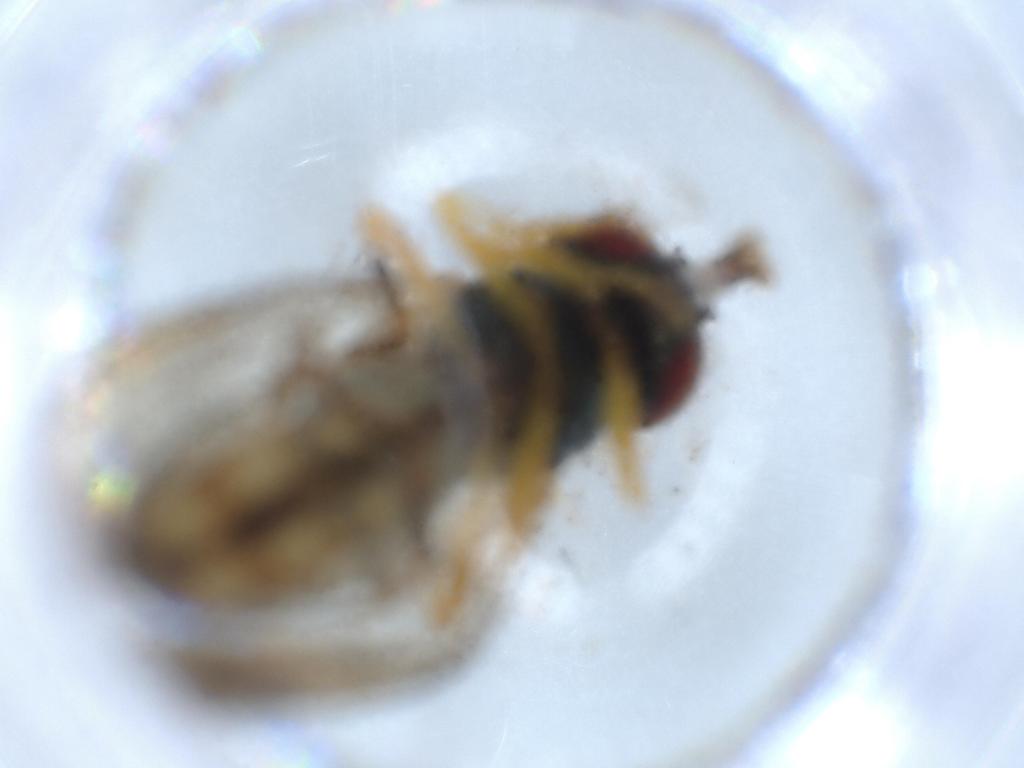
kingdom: Animalia
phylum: Arthropoda
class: Insecta
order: Diptera
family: Syrphidae
